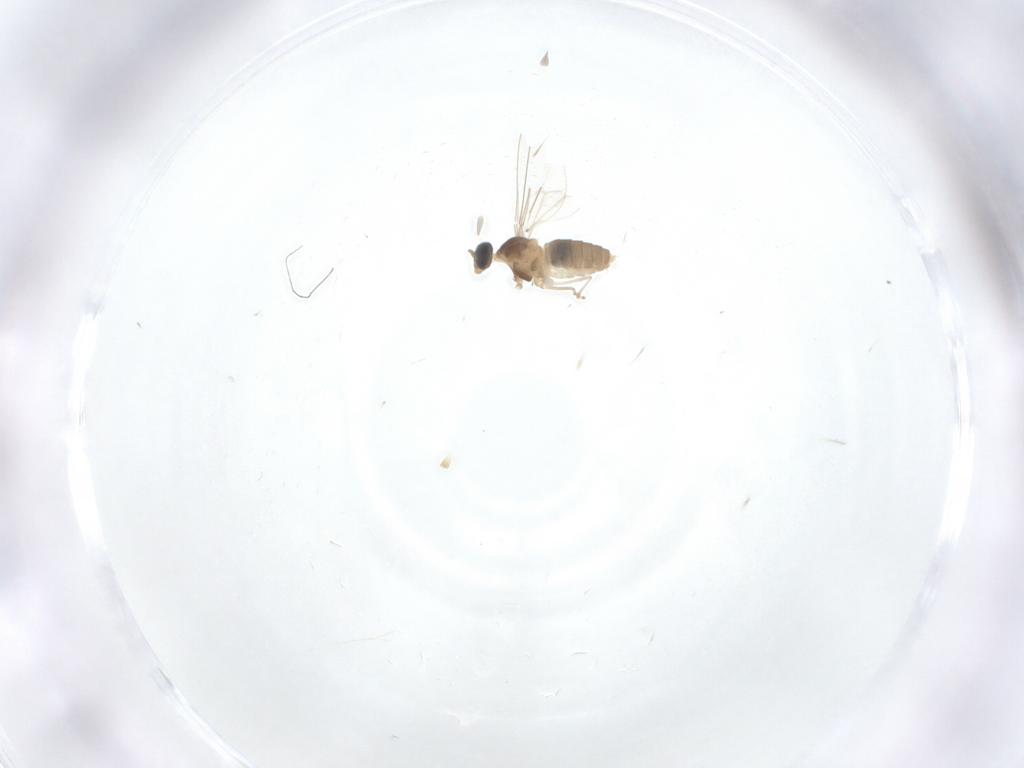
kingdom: Animalia
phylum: Arthropoda
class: Insecta
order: Diptera
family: Cecidomyiidae
